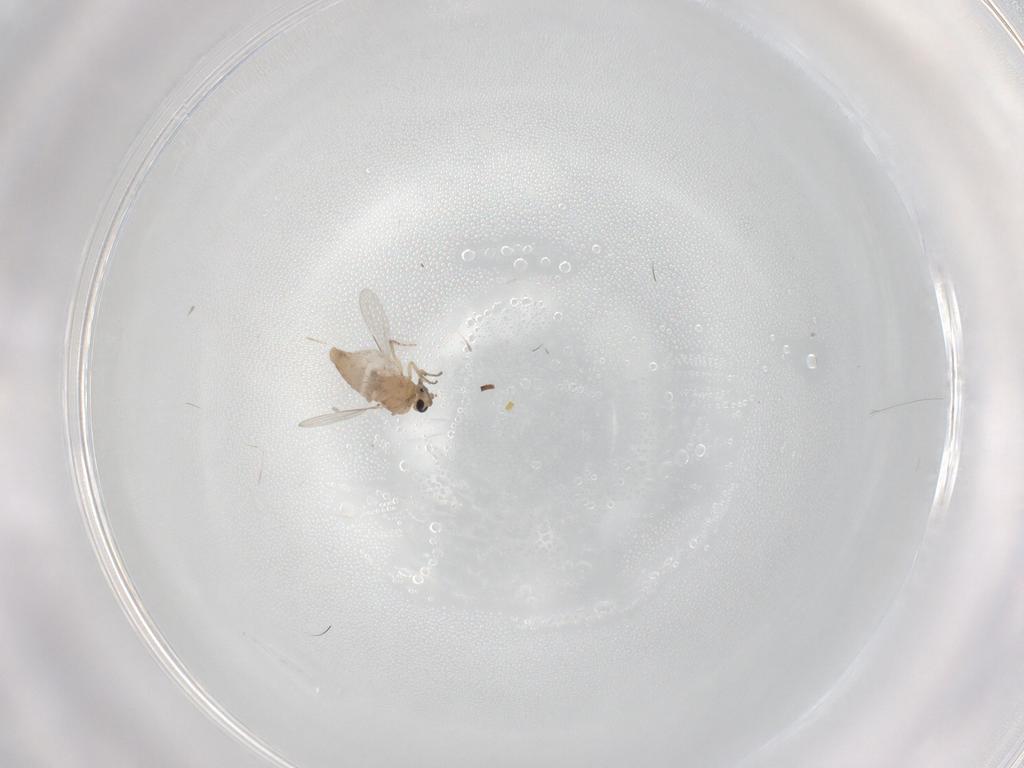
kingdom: Animalia
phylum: Arthropoda
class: Insecta
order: Diptera
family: Ceratopogonidae
